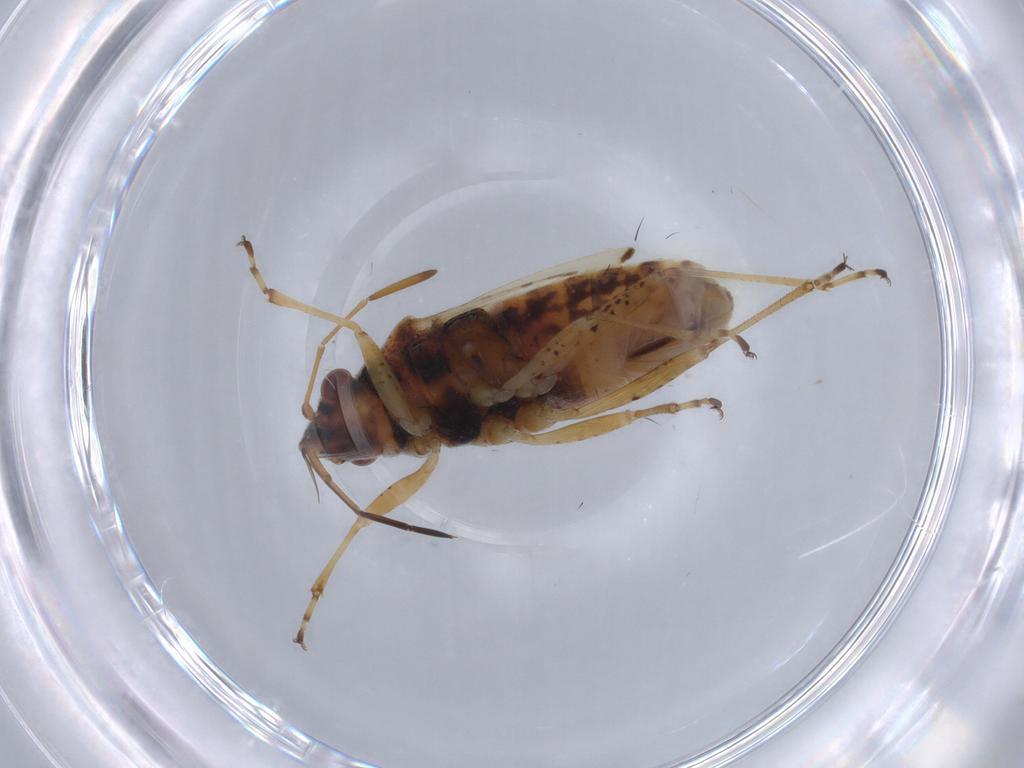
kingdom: Animalia
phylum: Arthropoda
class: Insecta
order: Hemiptera
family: Lygaeidae
